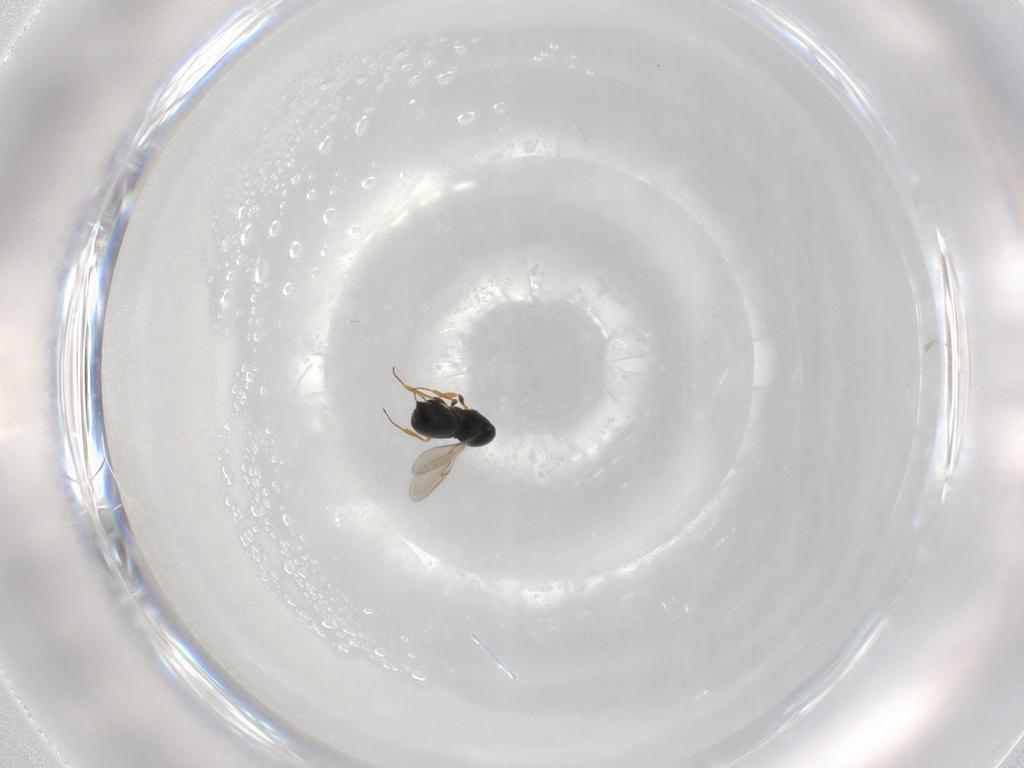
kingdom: Animalia
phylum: Arthropoda
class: Insecta
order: Hymenoptera
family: Scelionidae
